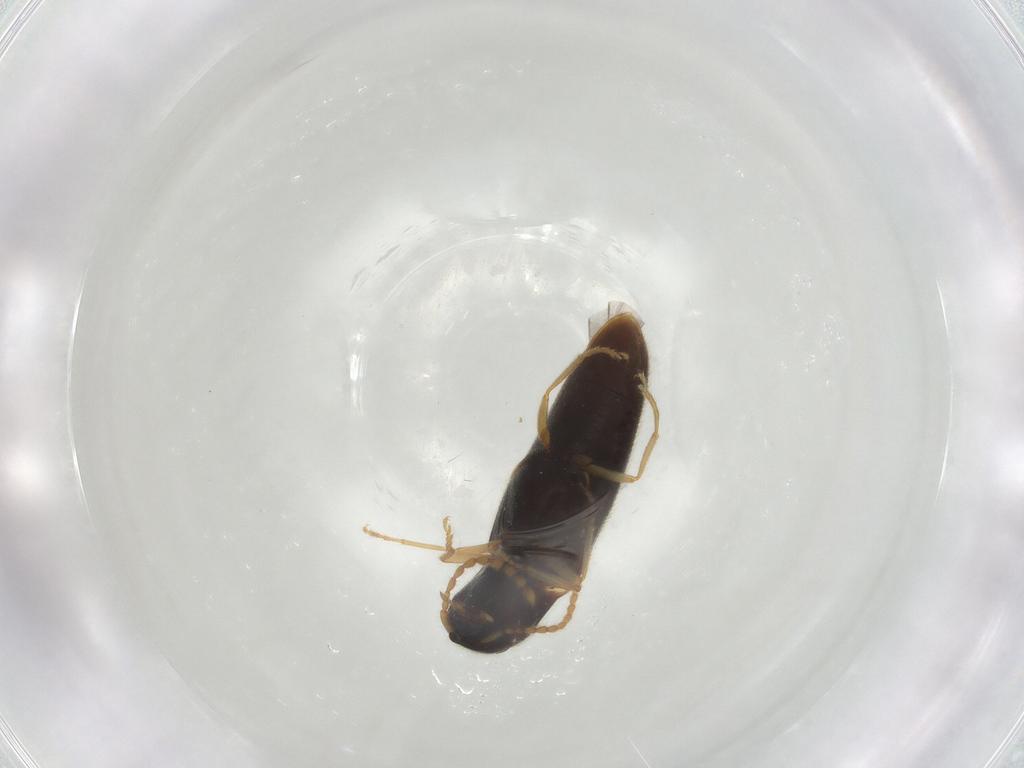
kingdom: Animalia
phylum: Arthropoda
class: Insecta
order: Coleoptera
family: Elateridae
